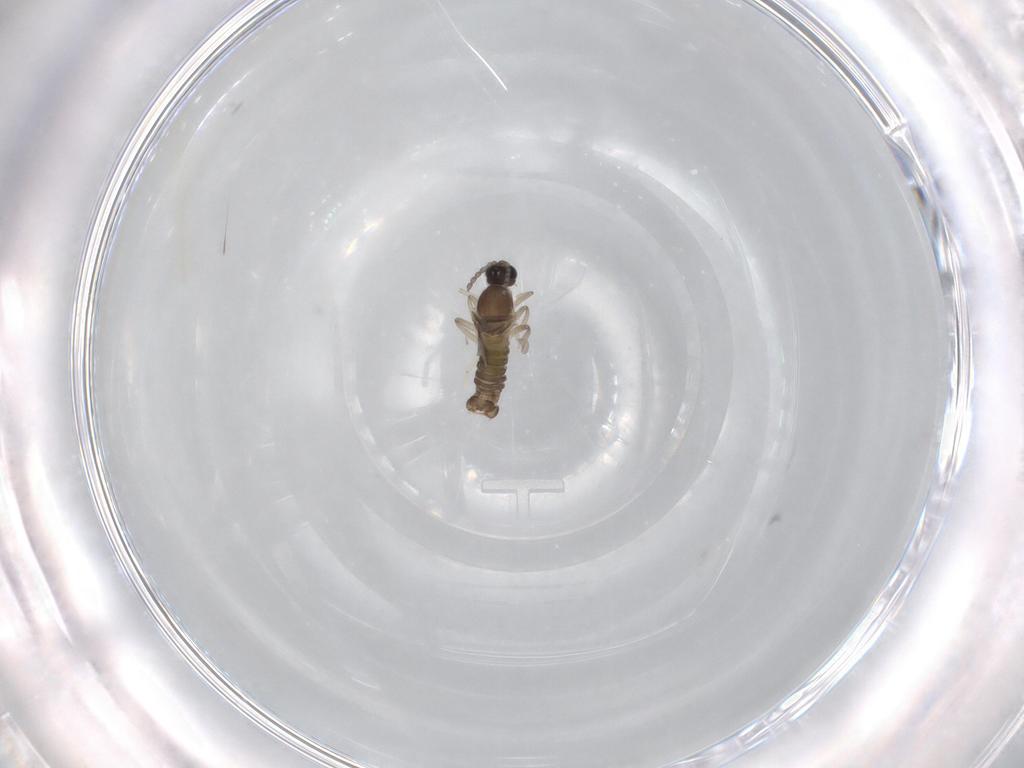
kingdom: Animalia
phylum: Arthropoda
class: Insecta
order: Diptera
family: Cecidomyiidae
